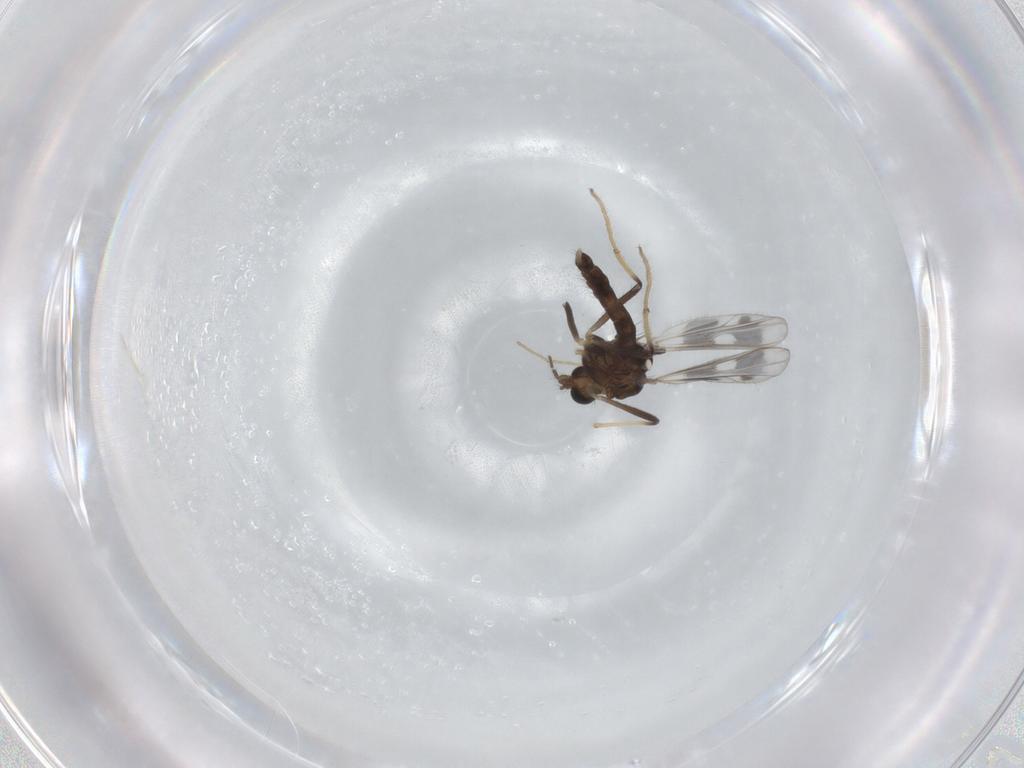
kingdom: Animalia
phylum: Arthropoda
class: Insecta
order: Diptera
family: Chironomidae
